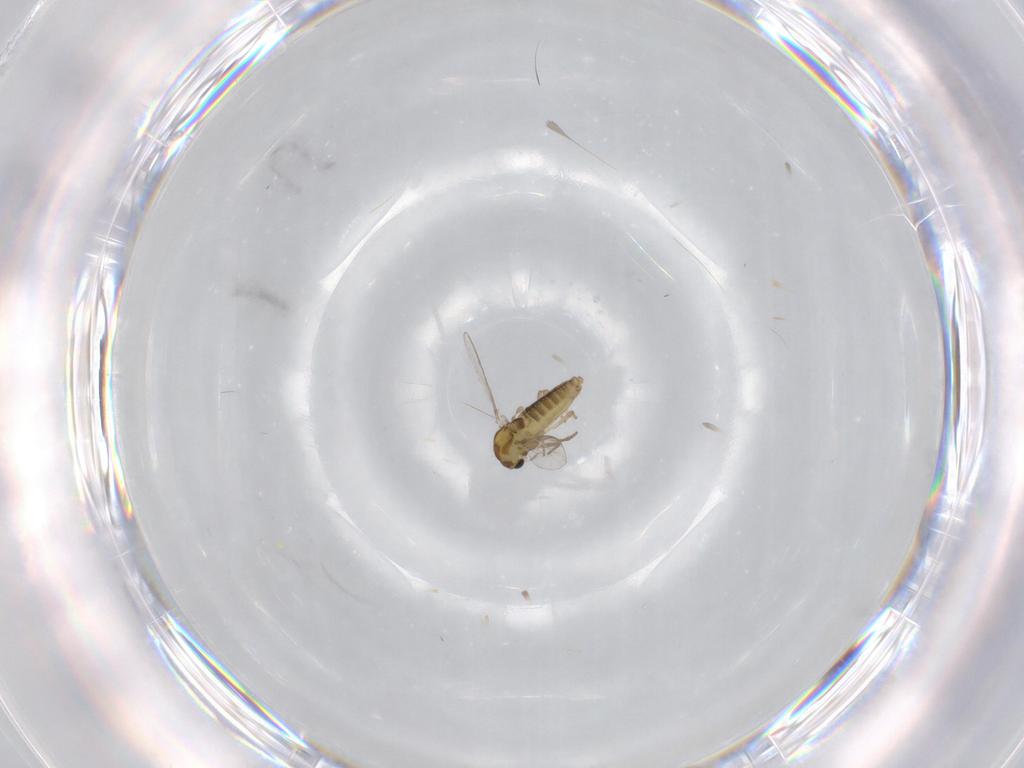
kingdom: Animalia
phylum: Arthropoda
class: Insecta
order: Diptera
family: Chironomidae
